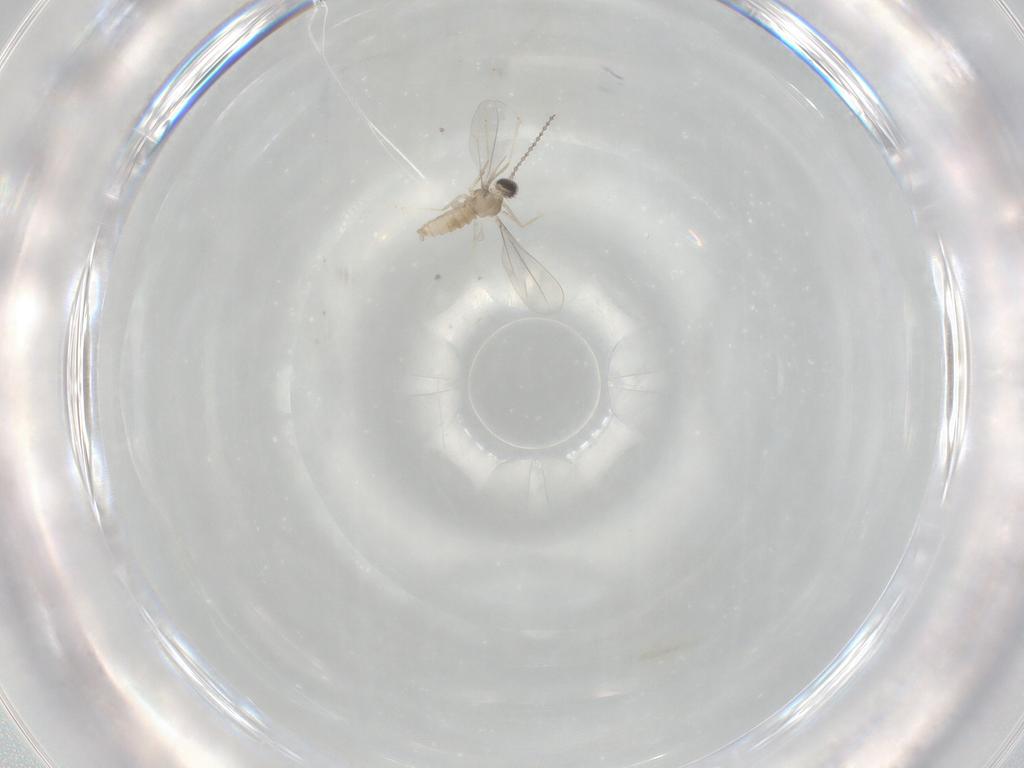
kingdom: Animalia
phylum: Arthropoda
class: Insecta
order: Diptera
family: Cecidomyiidae
